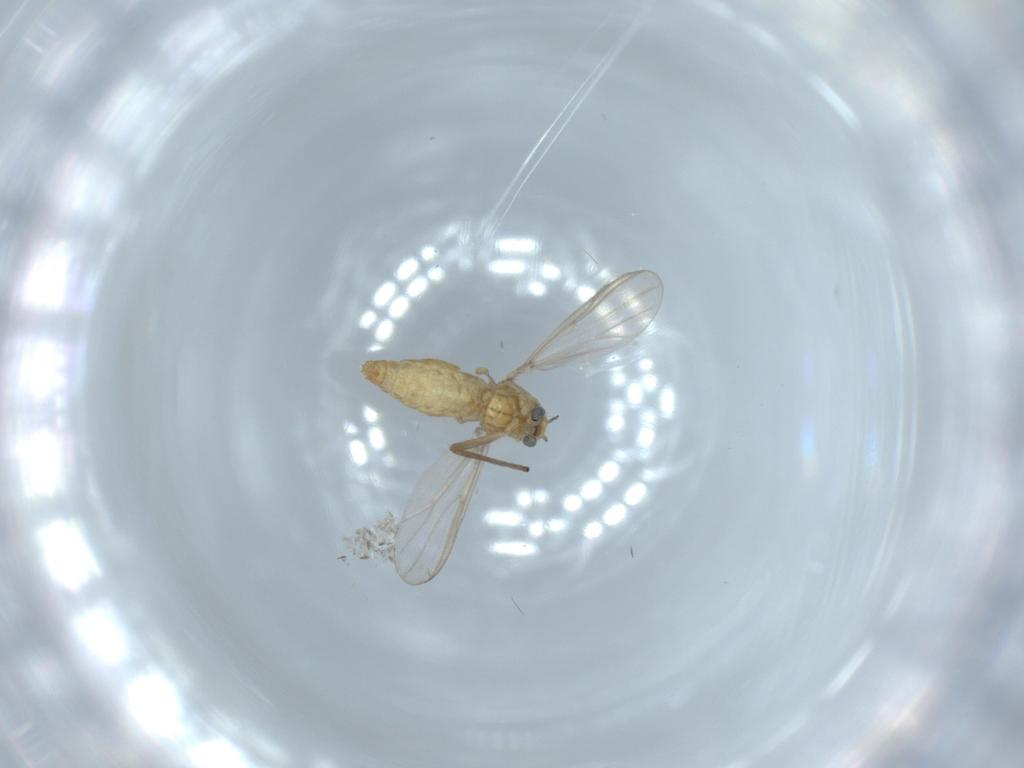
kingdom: Animalia
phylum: Arthropoda
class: Insecta
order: Diptera
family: Chironomidae
